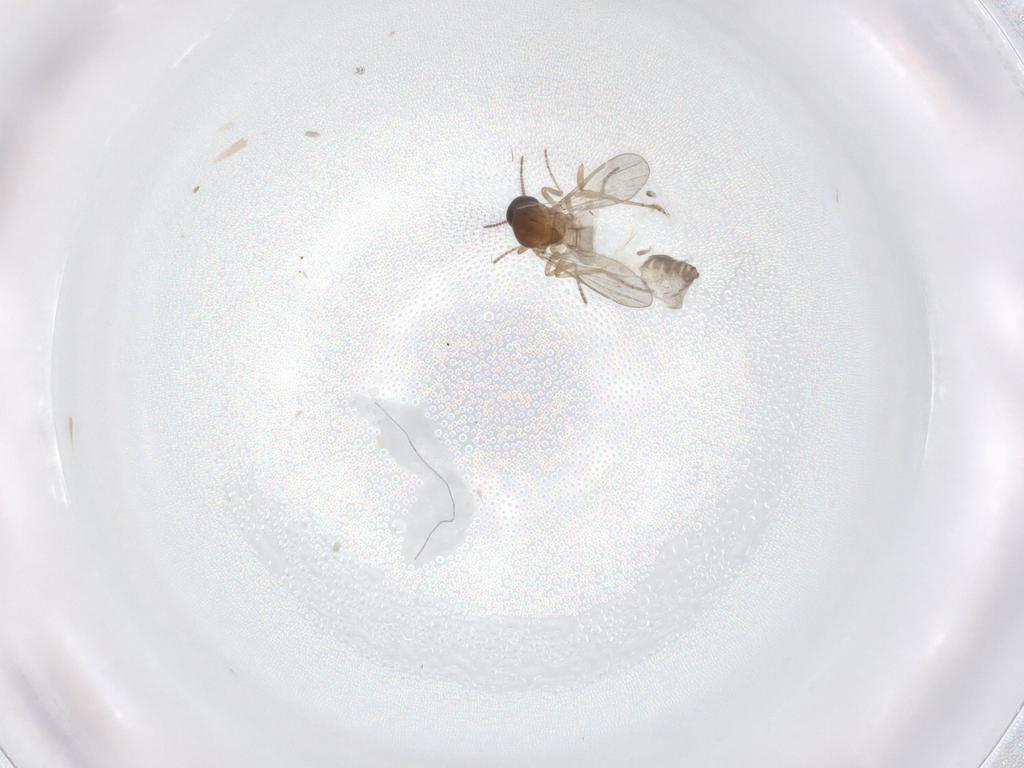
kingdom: Animalia
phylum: Arthropoda
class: Insecta
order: Diptera
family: Ceratopogonidae
